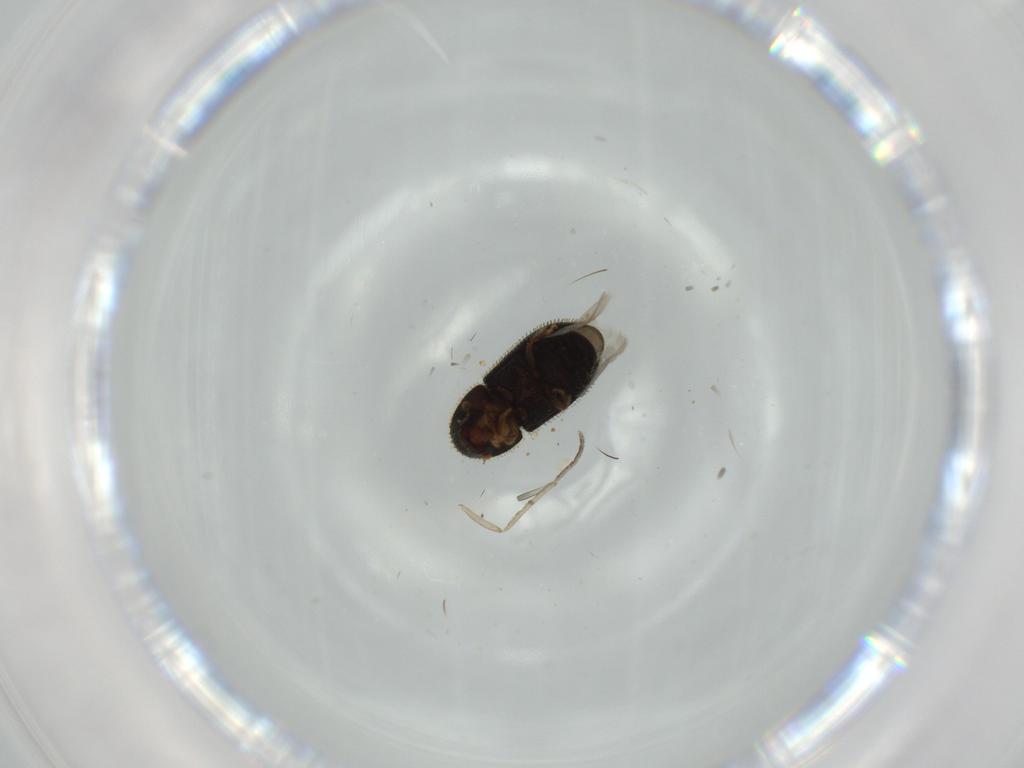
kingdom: Animalia
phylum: Arthropoda
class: Insecta
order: Coleoptera
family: Curculionidae
